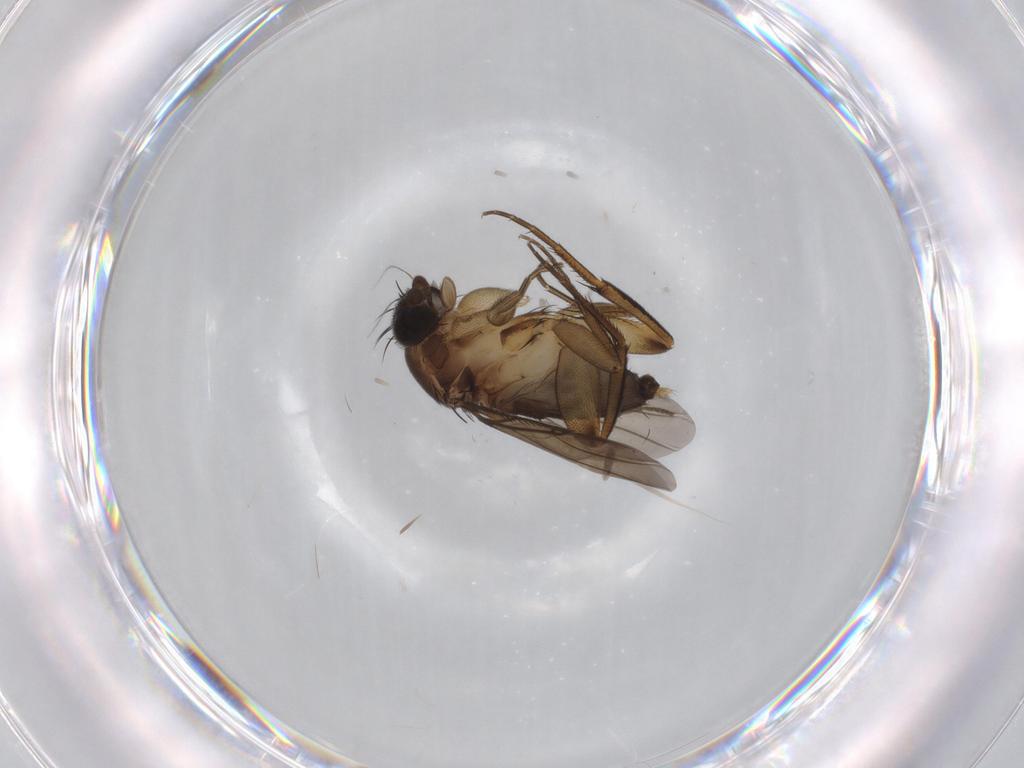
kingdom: Animalia
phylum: Arthropoda
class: Insecta
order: Diptera
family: Phoridae
